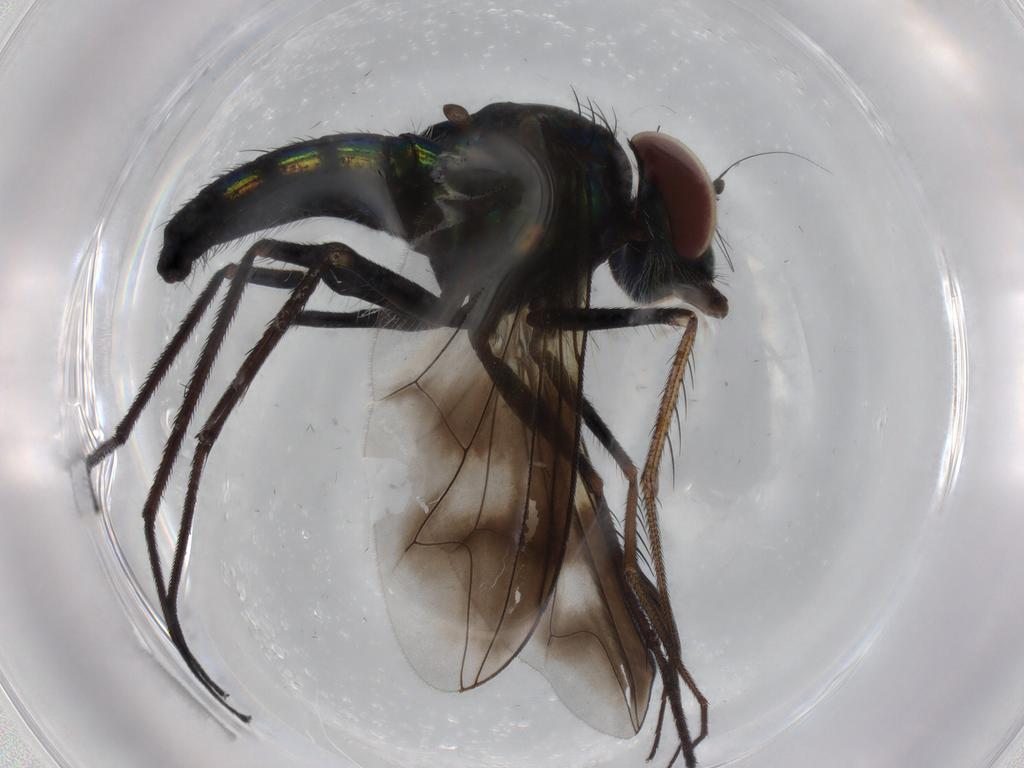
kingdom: Animalia
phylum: Arthropoda
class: Insecta
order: Diptera
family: Dolichopodidae
